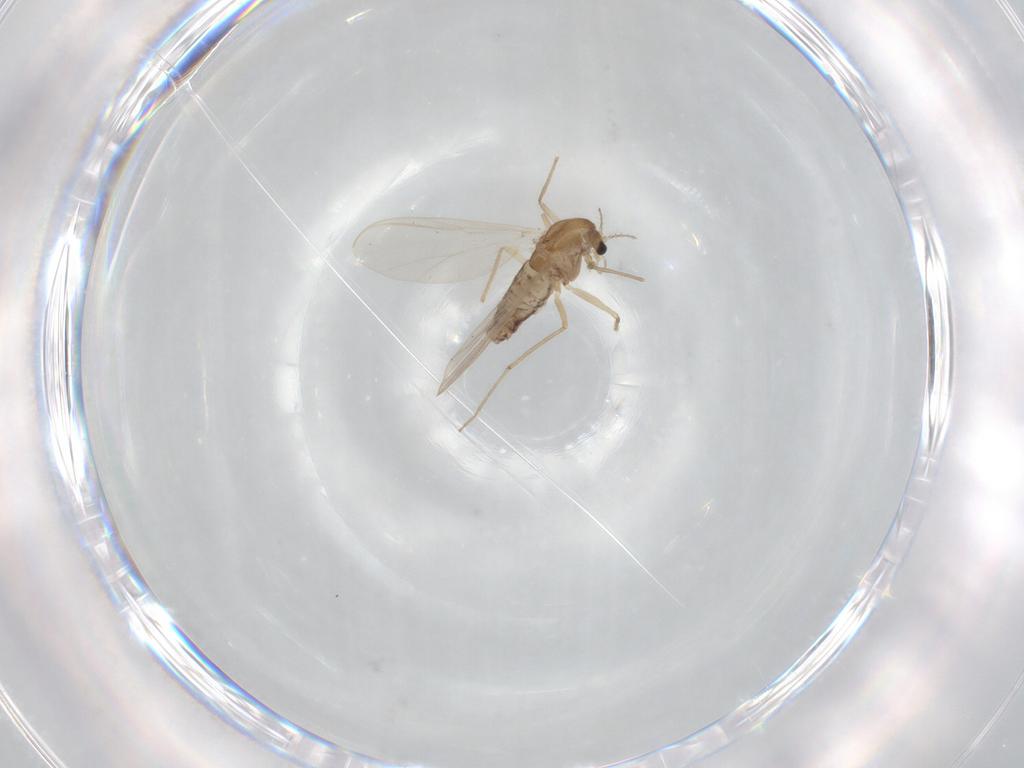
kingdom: Animalia
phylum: Arthropoda
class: Insecta
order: Diptera
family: Chironomidae
